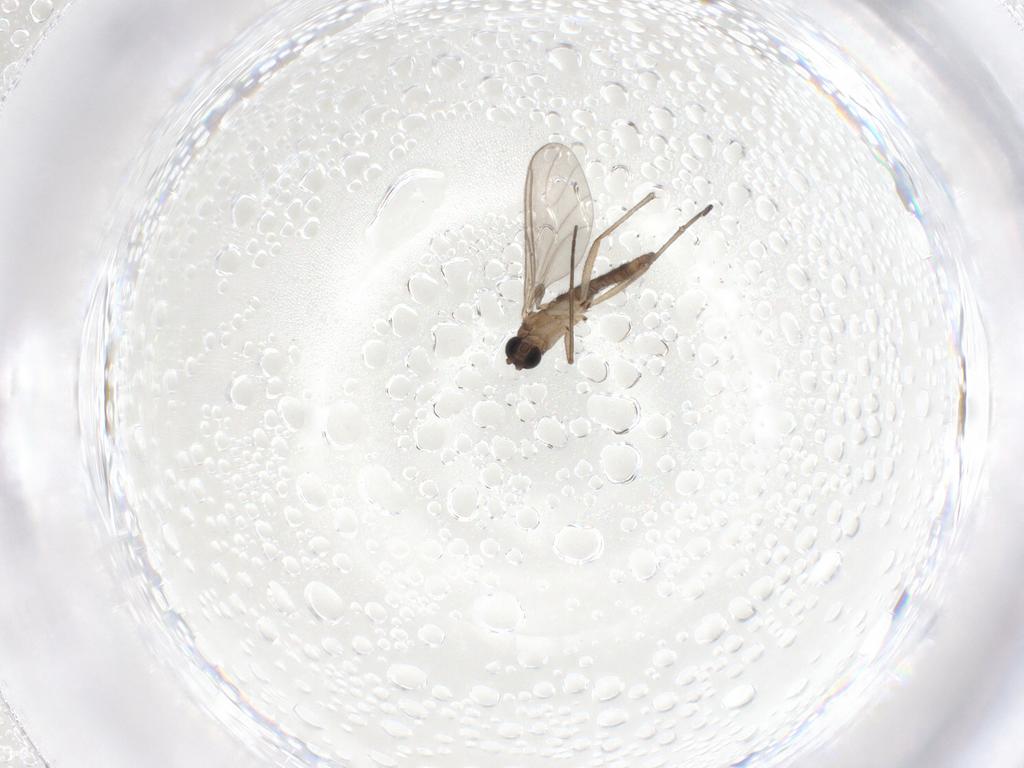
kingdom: Animalia
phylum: Arthropoda
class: Insecta
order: Diptera
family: Sciaridae
